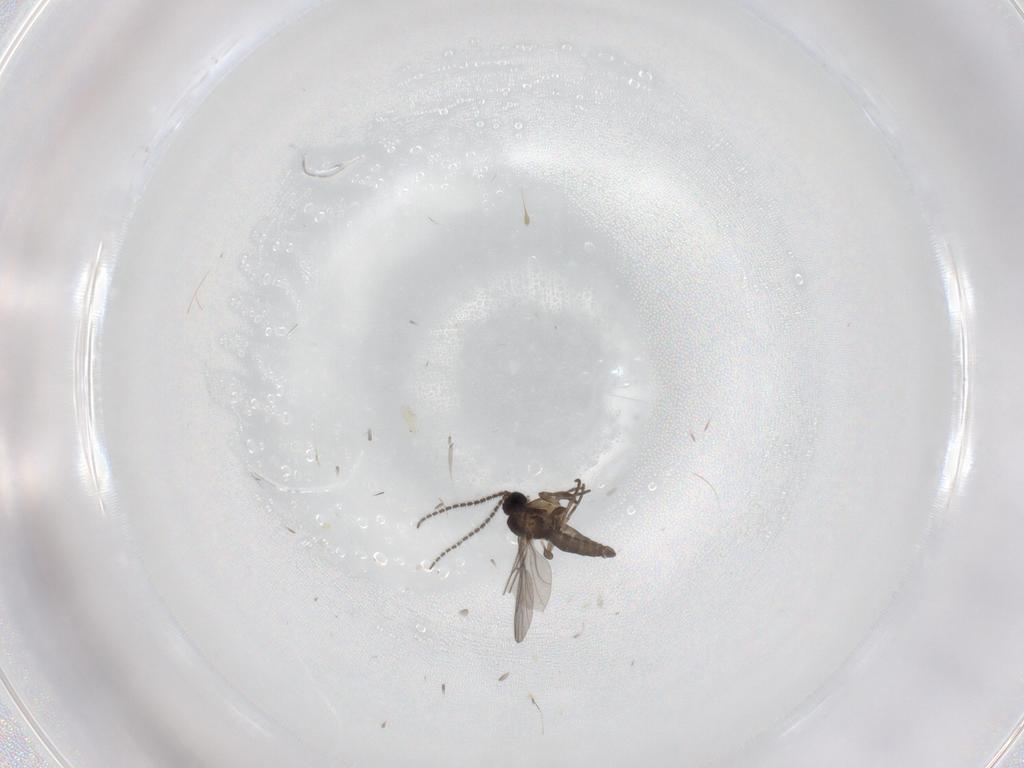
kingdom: Animalia
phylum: Arthropoda
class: Insecta
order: Diptera
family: Sciaridae
